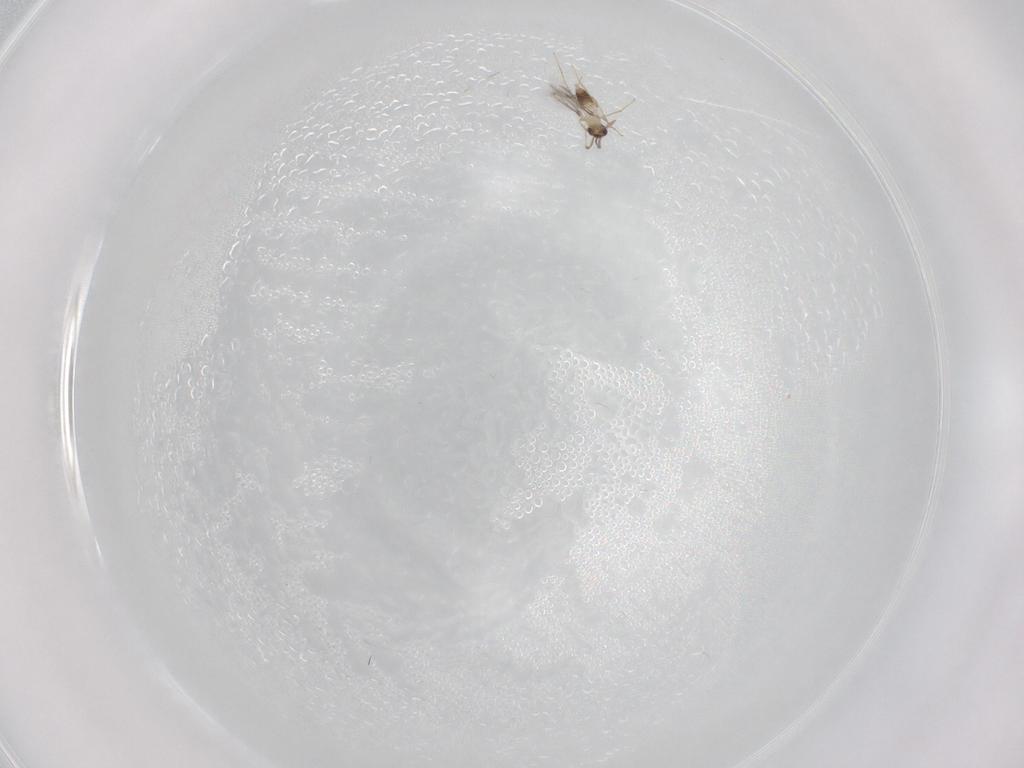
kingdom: Animalia
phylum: Arthropoda
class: Insecta
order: Hymenoptera
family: Mymaridae
